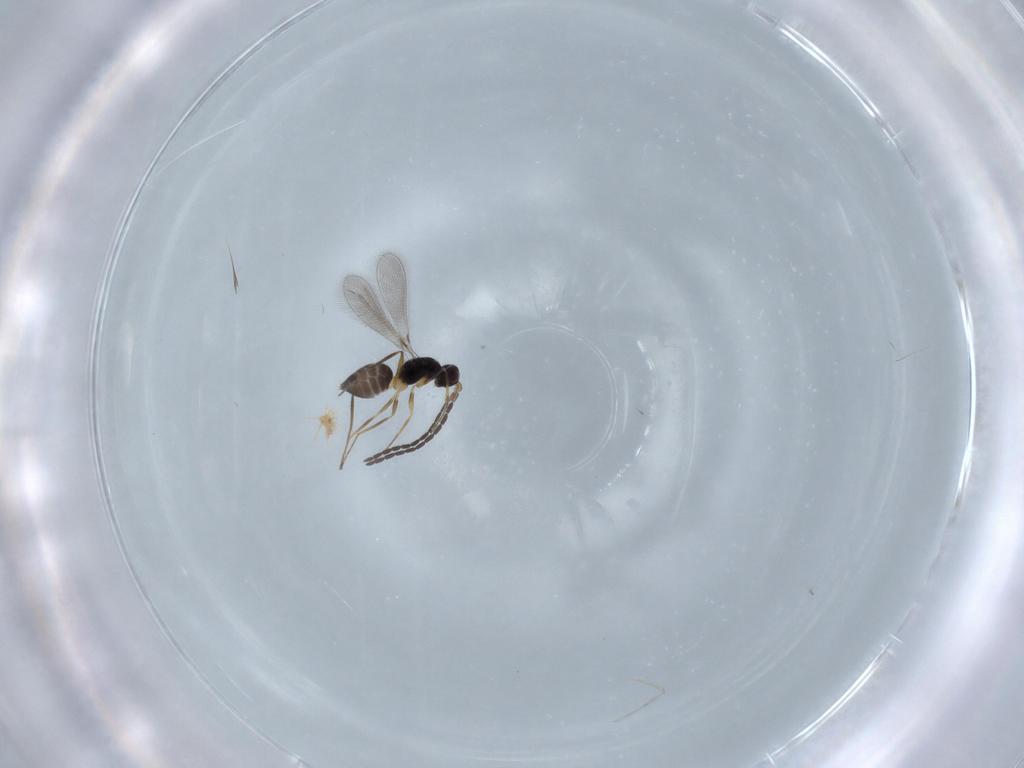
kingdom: Animalia
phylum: Arthropoda
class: Insecta
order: Hymenoptera
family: Mymaridae
